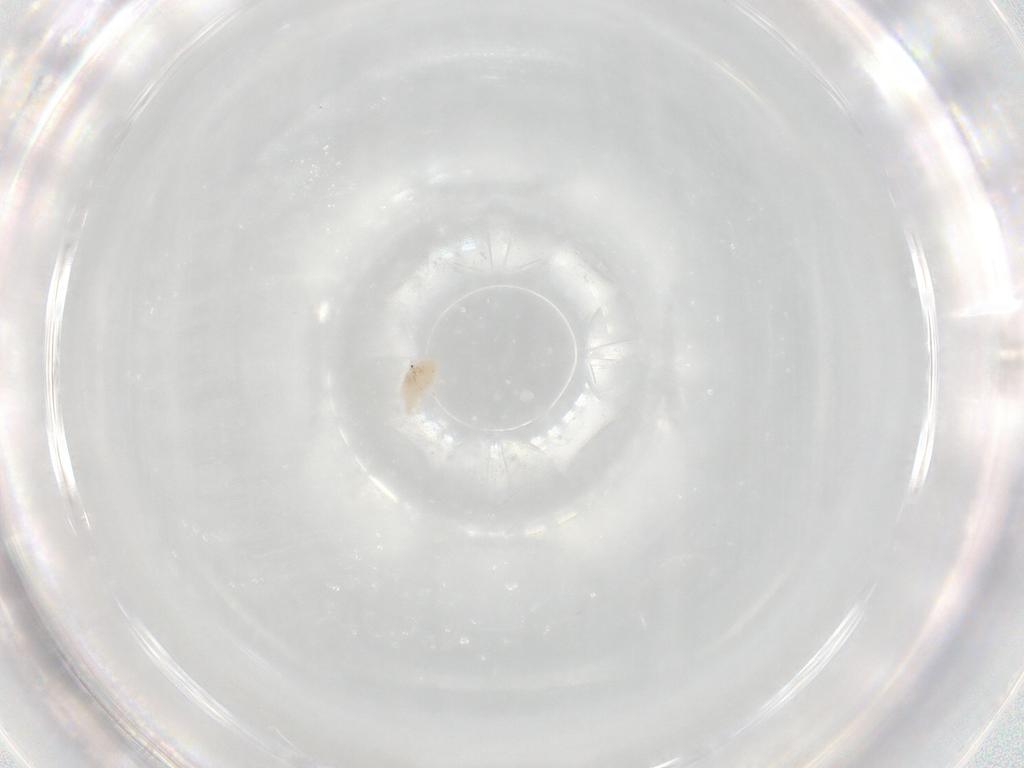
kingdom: Animalia
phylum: Arthropoda
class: Arachnida
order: Trombidiformes
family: Stigmaeidae
